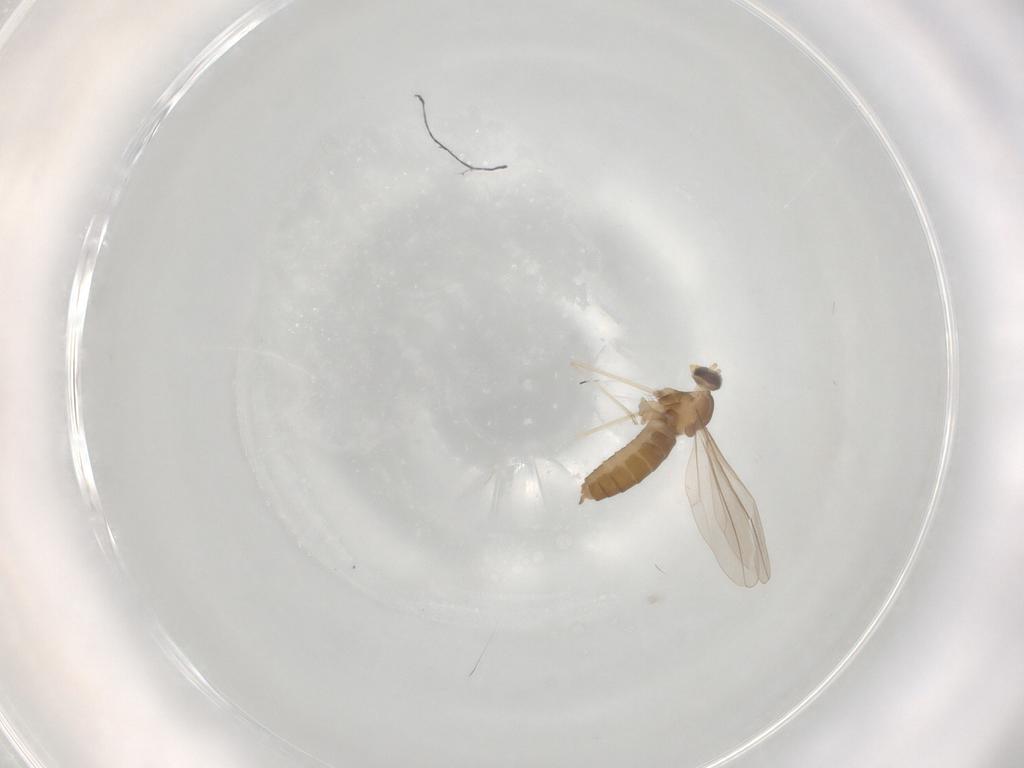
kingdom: Animalia
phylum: Arthropoda
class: Insecta
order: Diptera
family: Cecidomyiidae
